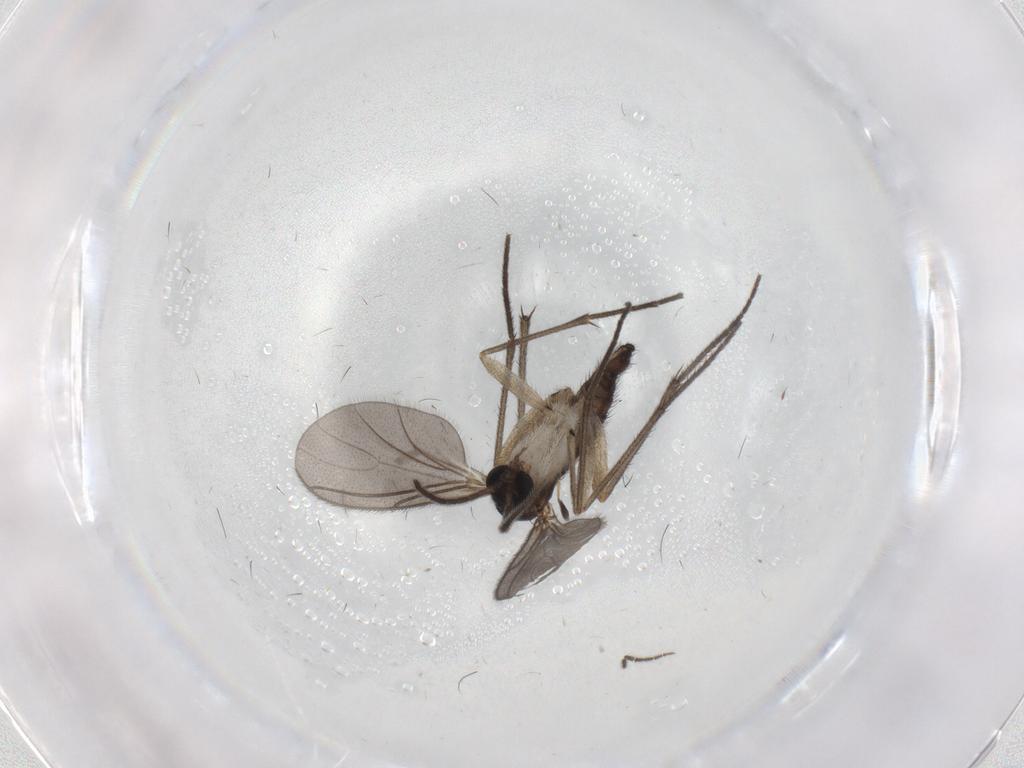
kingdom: Animalia
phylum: Arthropoda
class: Insecta
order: Diptera
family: Sciaridae
